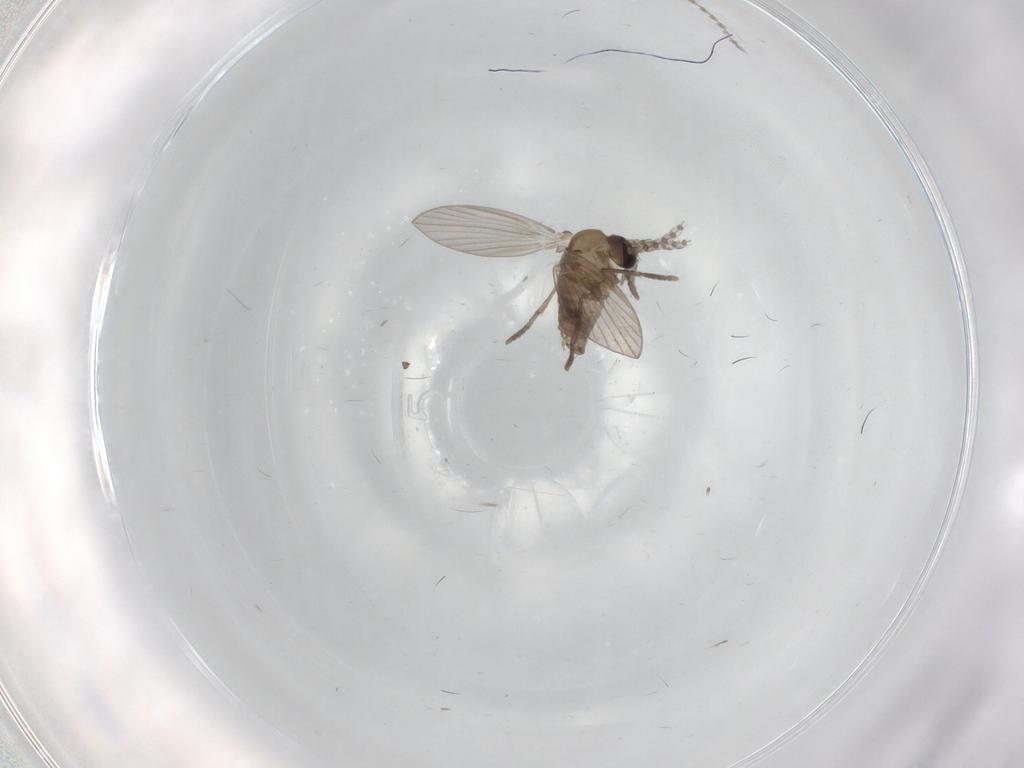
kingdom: Animalia
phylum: Arthropoda
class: Insecta
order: Diptera
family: Psychodidae
